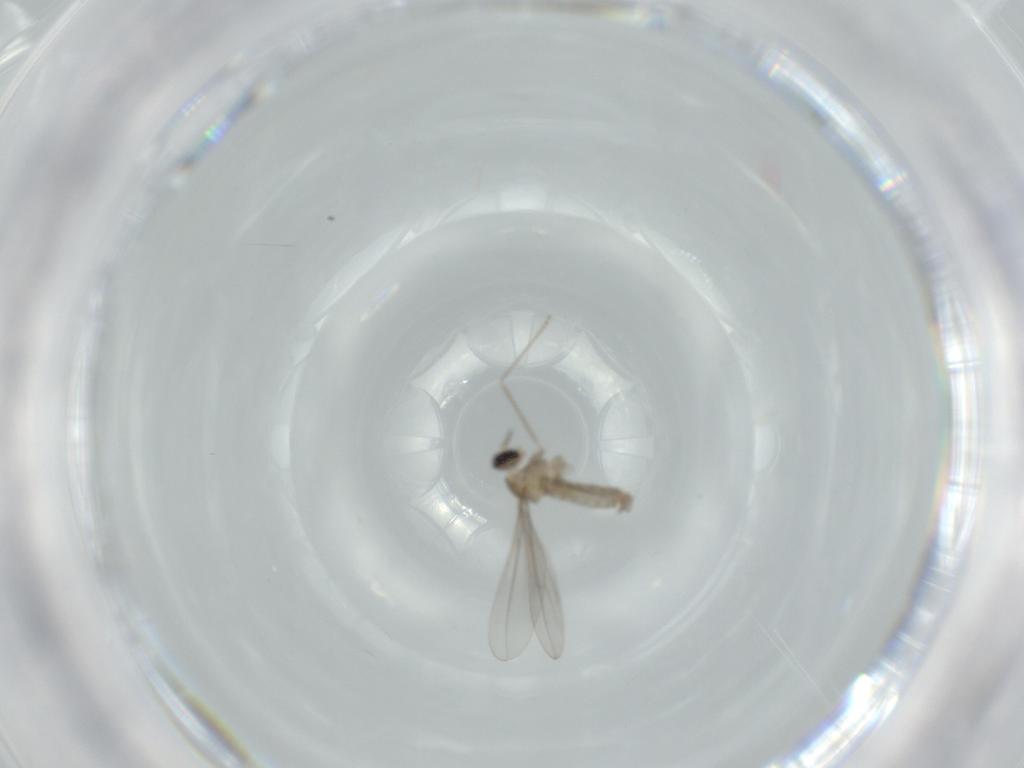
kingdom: Animalia
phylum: Arthropoda
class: Insecta
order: Diptera
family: Cecidomyiidae
